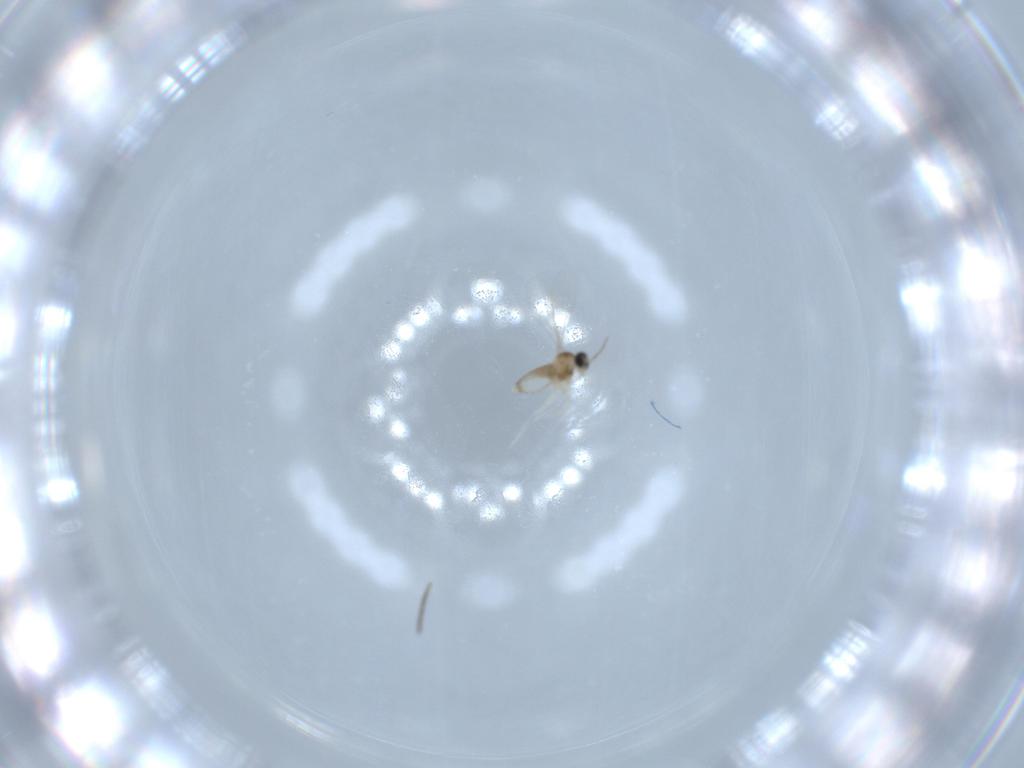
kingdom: Animalia
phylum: Arthropoda
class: Insecta
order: Diptera
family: Sciaridae
